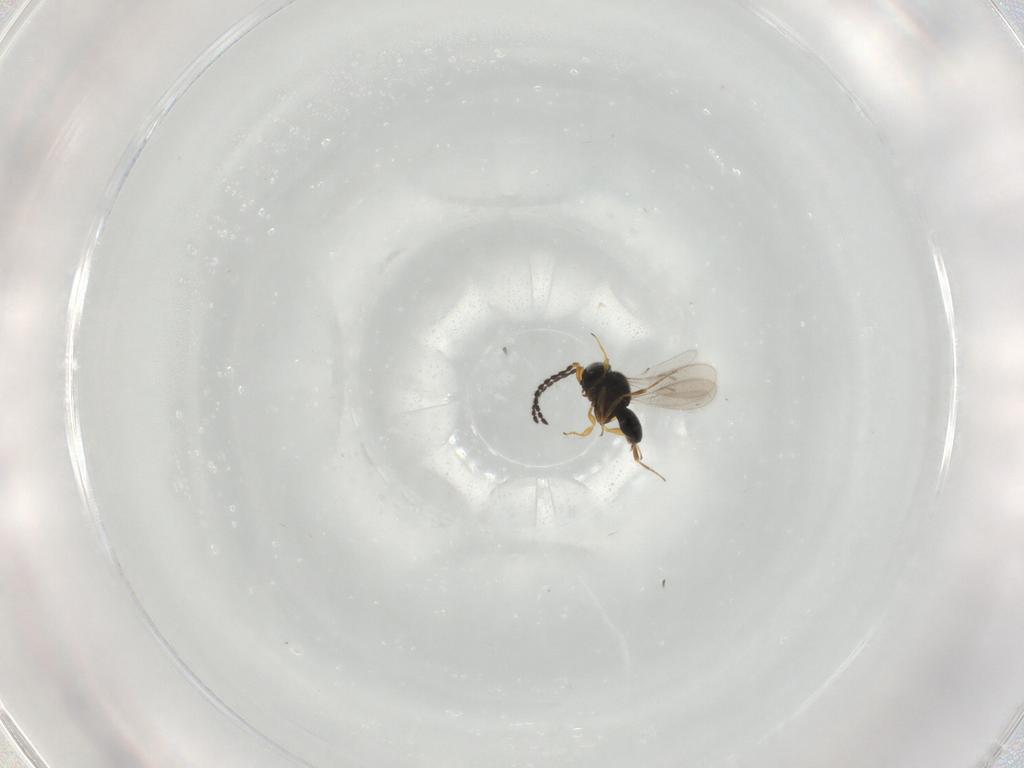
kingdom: Animalia
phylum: Arthropoda
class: Insecta
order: Hymenoptera
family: Scelionidae
